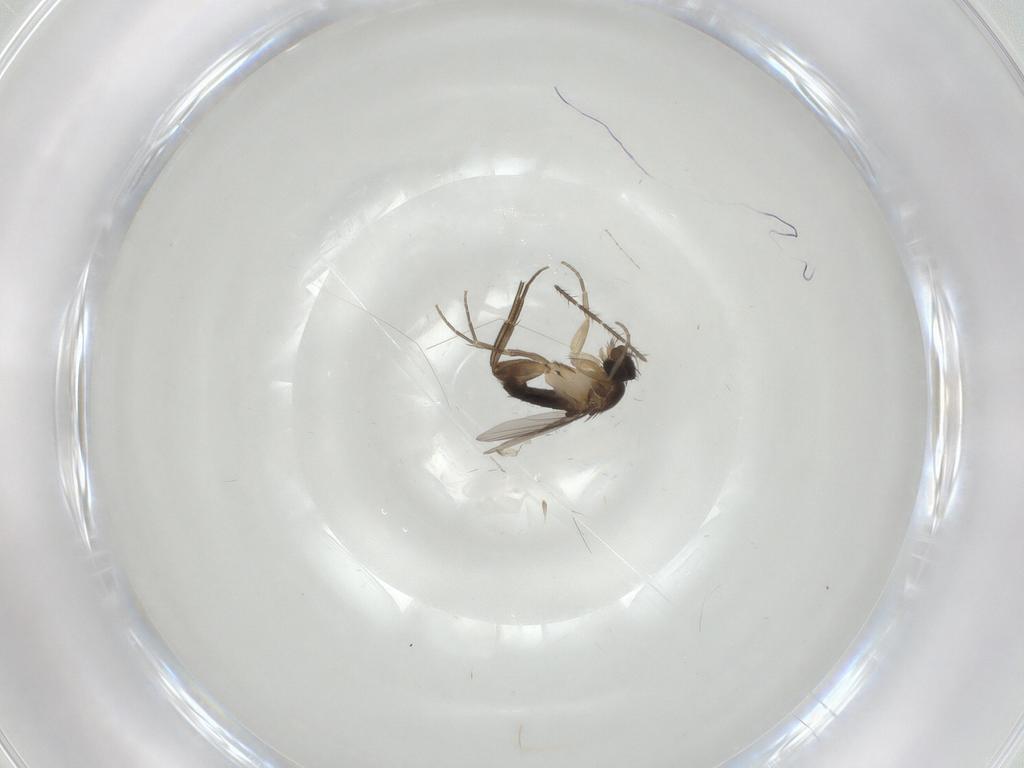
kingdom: Animalia
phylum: Arthropoda
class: Insecta
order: Diptera
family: Phoridae
